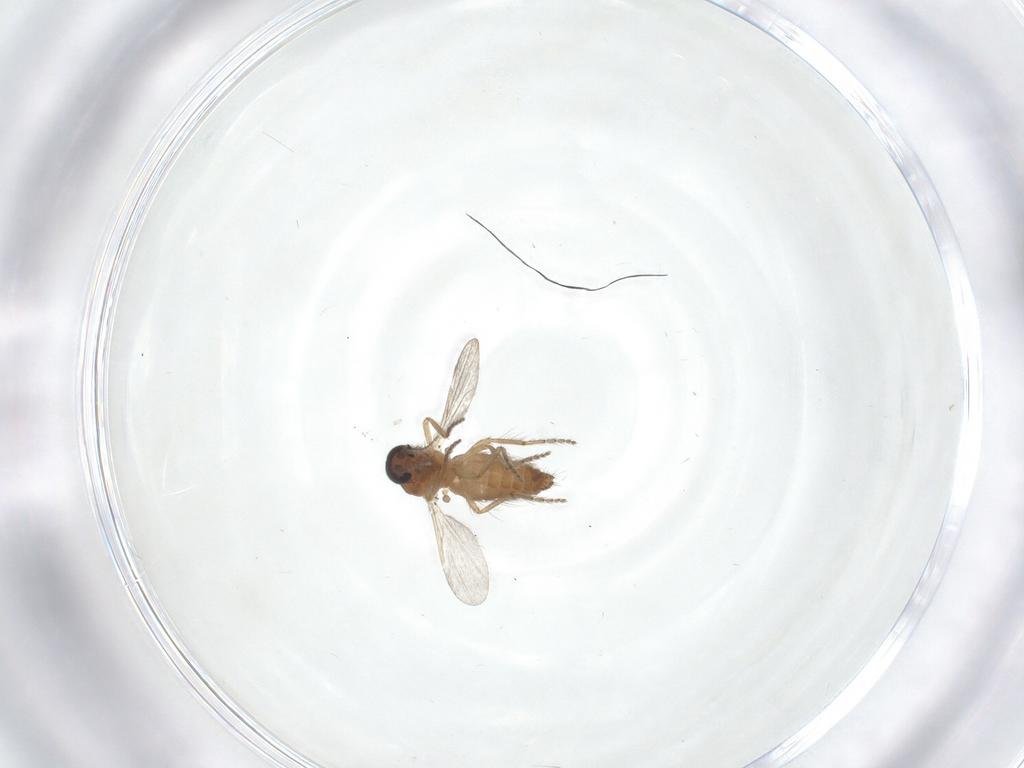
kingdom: Animalia
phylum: Arthropoda
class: Insecta
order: Diptera
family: Ceratopogonidae
